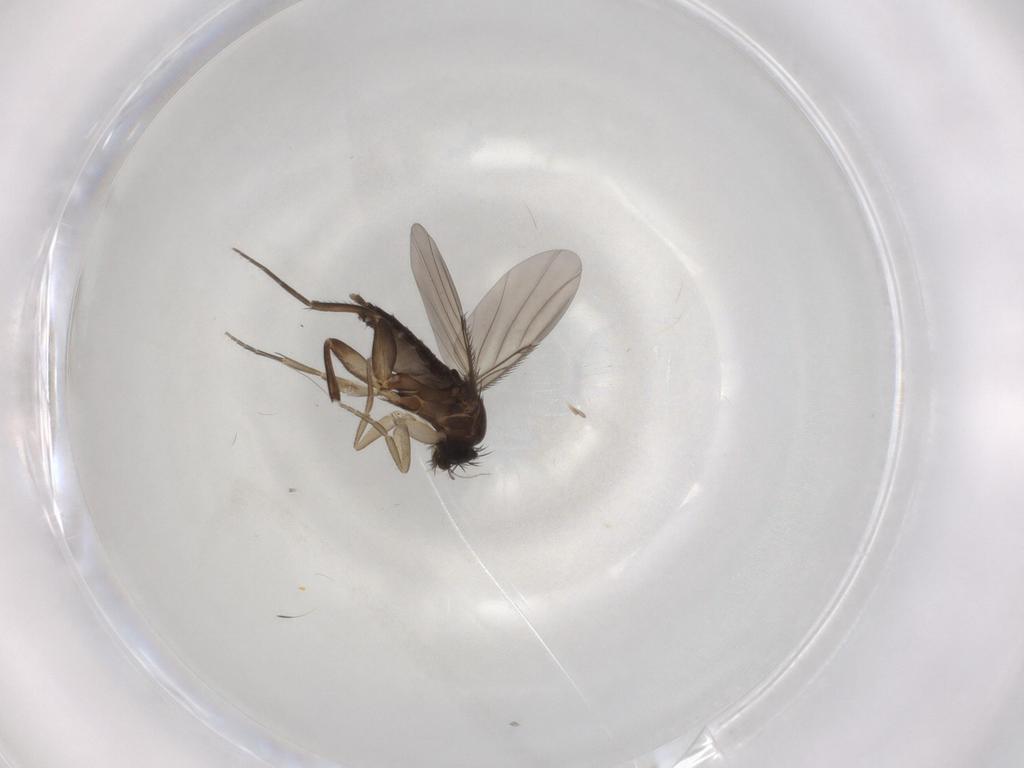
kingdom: Animalia
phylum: Arthropoda
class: Insecta
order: Diptera
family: Phoridae
